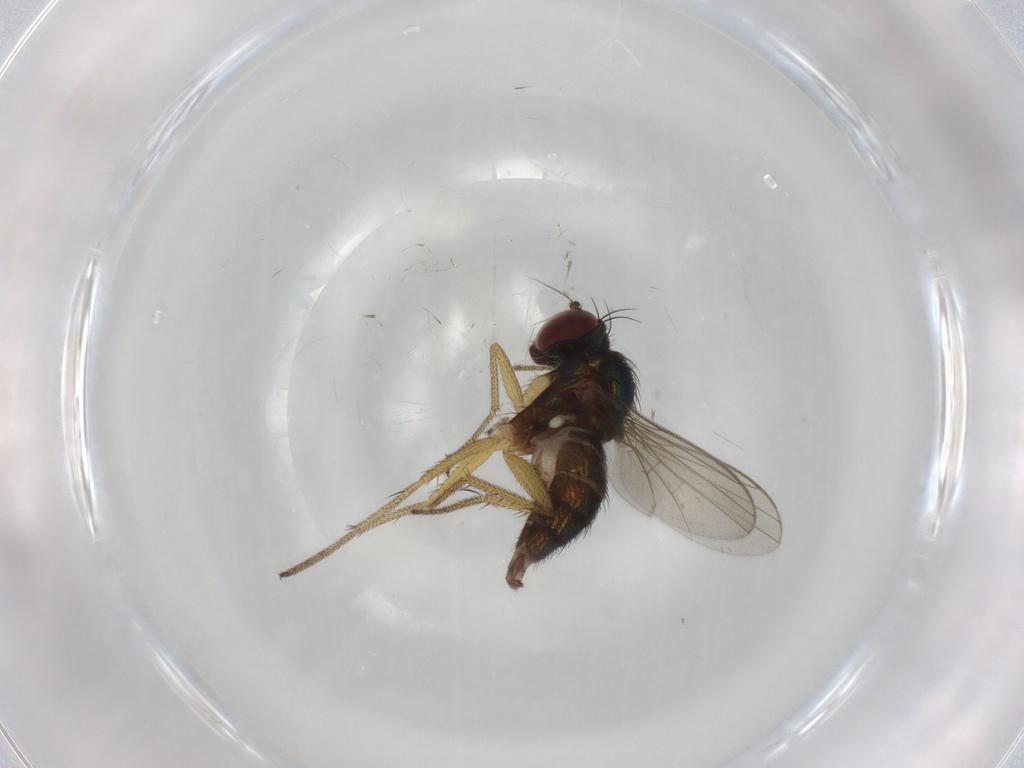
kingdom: Animalia
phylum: Arthropoda
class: Insecta
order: Diptera
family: Dolichopodidae
